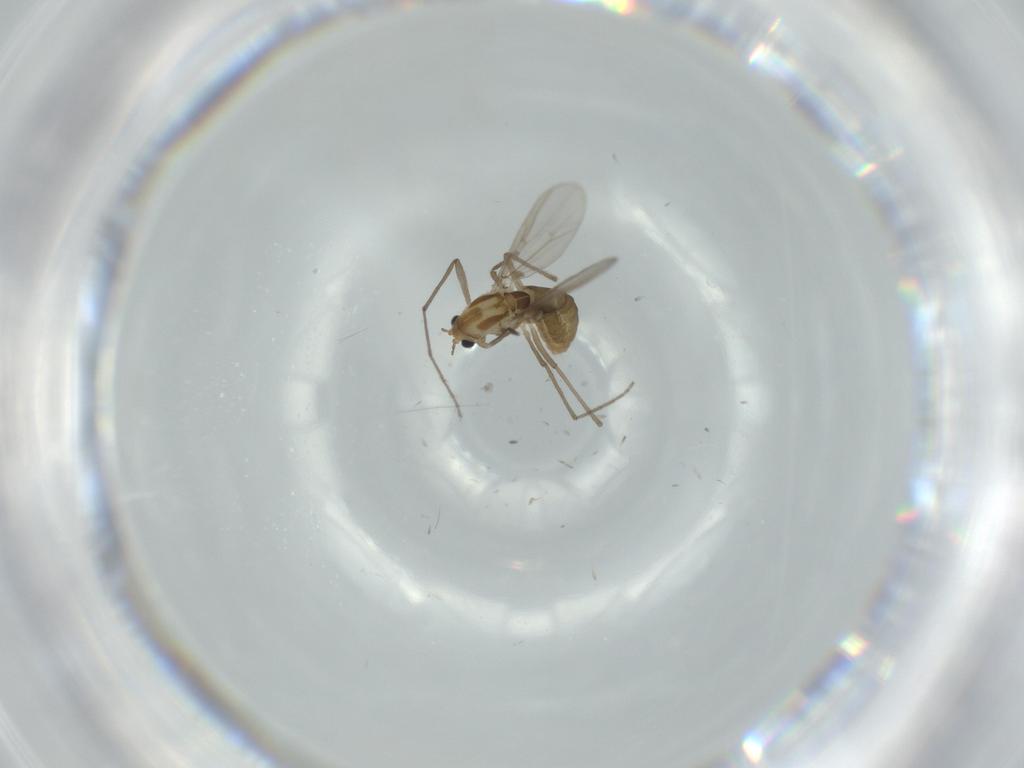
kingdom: Animalia
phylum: Arthropoda
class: Insecta
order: Diptera
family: Chironomidae
